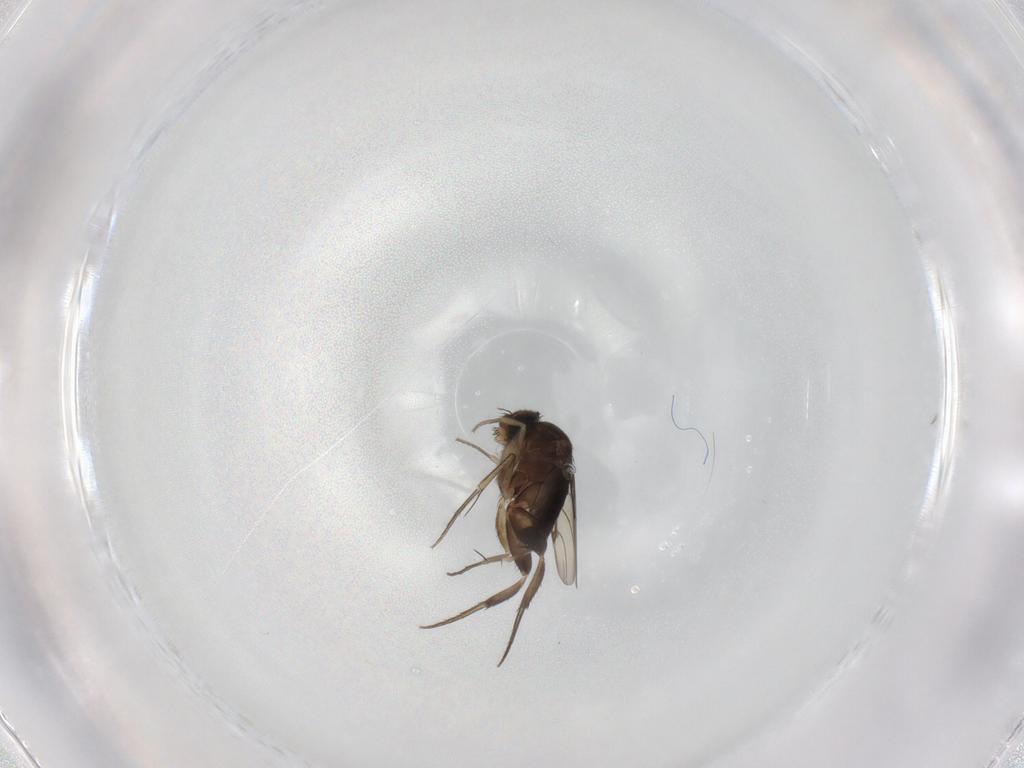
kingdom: Animalia
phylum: Arthropoda
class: Insecta
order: Diptera
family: Phoridae
